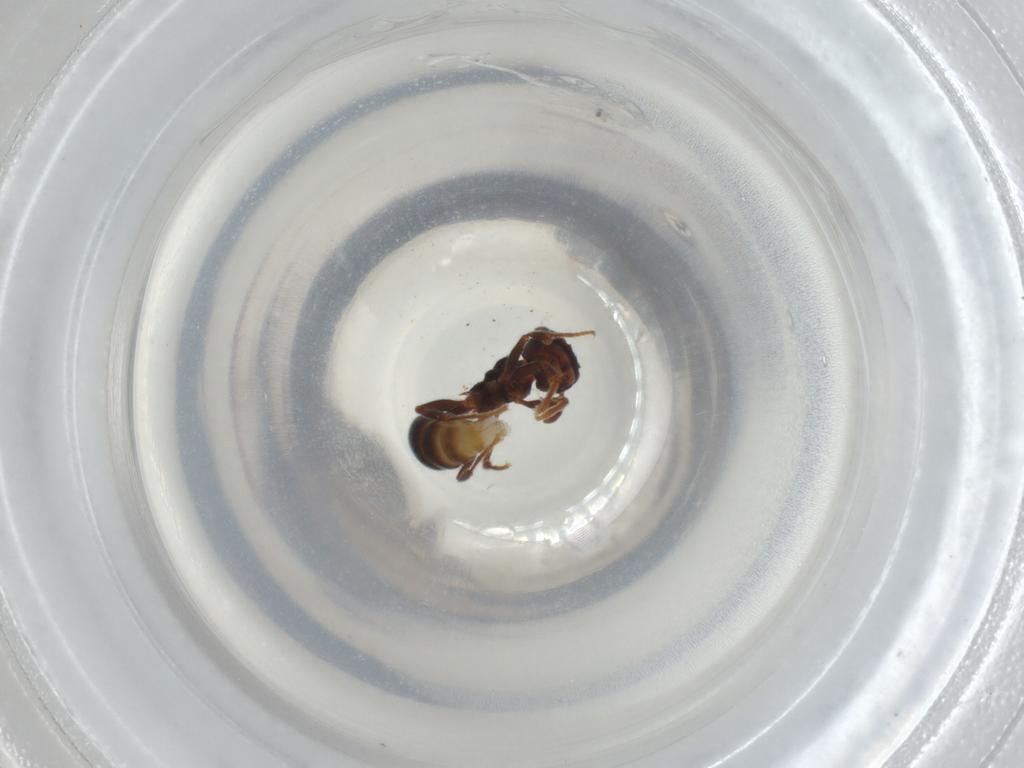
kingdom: Animalia
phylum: Arthropoda
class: Insecta
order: Hymenoptera
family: Formicidae
